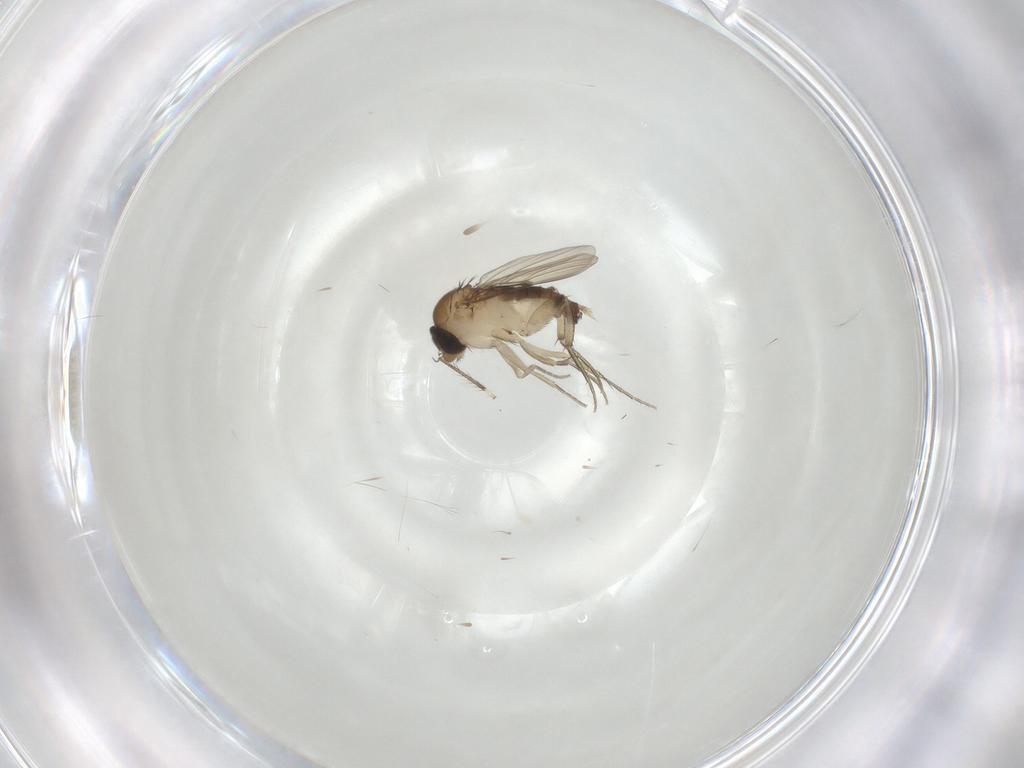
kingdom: Animalia
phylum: Arthropoda
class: Insecta
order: Diptera
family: Phoridae
